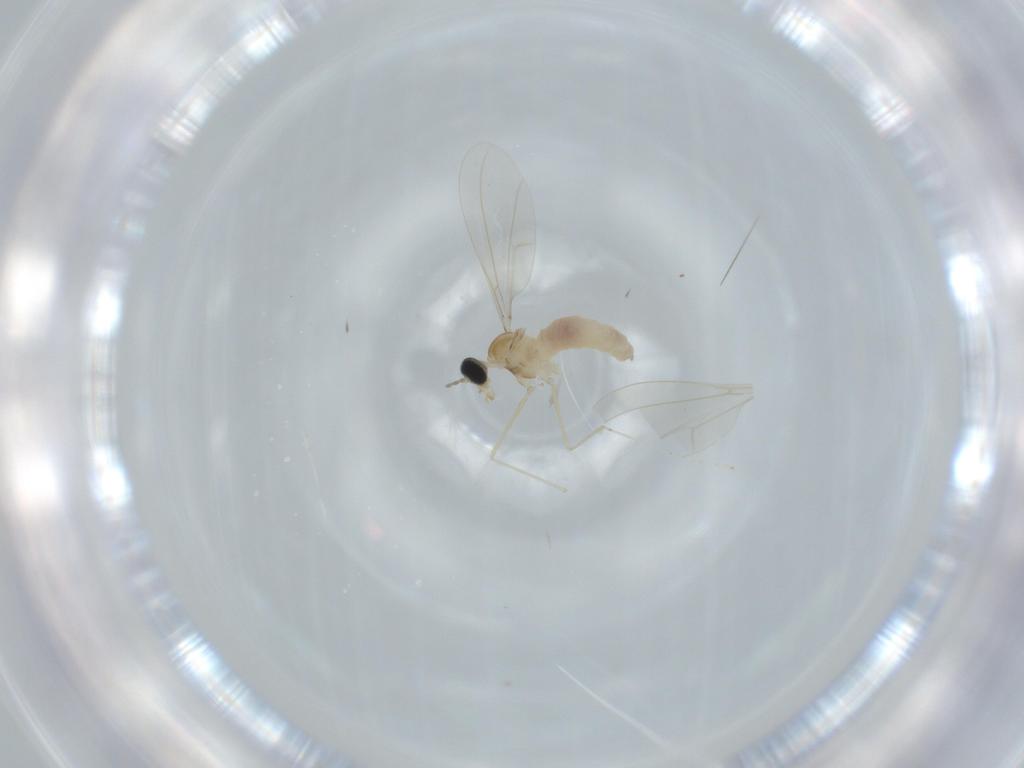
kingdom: Animalia
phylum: Arthropoda
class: Insecta
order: Diptera
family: Cecidomyiidae
